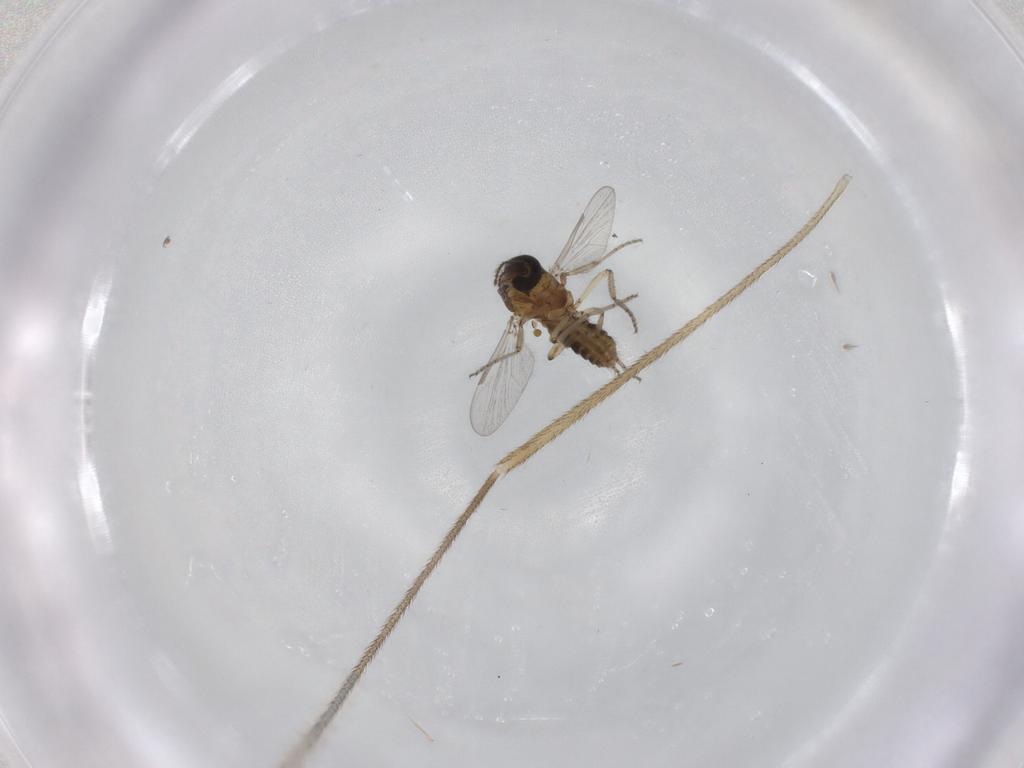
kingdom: Animalia
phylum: Arthropoda
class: Insecta
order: Diptera
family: Ceratopogonidae
